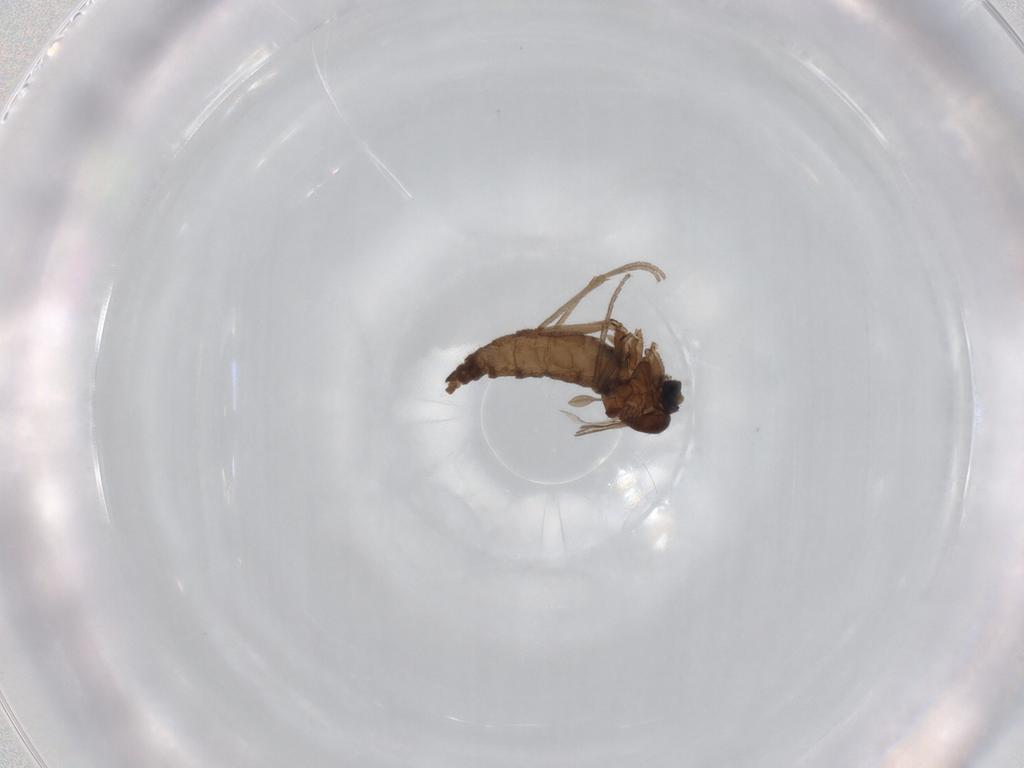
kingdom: Animalia
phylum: Arthropoda
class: Insecta
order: Diptera
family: Sciaridae
